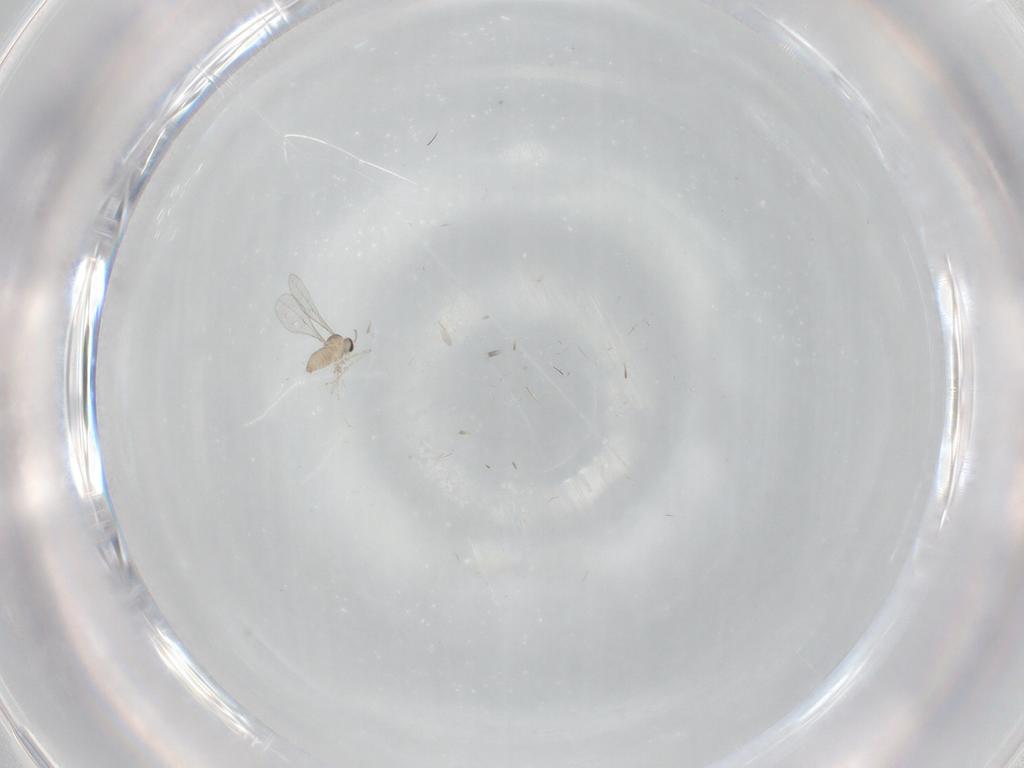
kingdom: Animalia
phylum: Arthropoda
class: Insecta
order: Diptera
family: Cecidomyiidae
